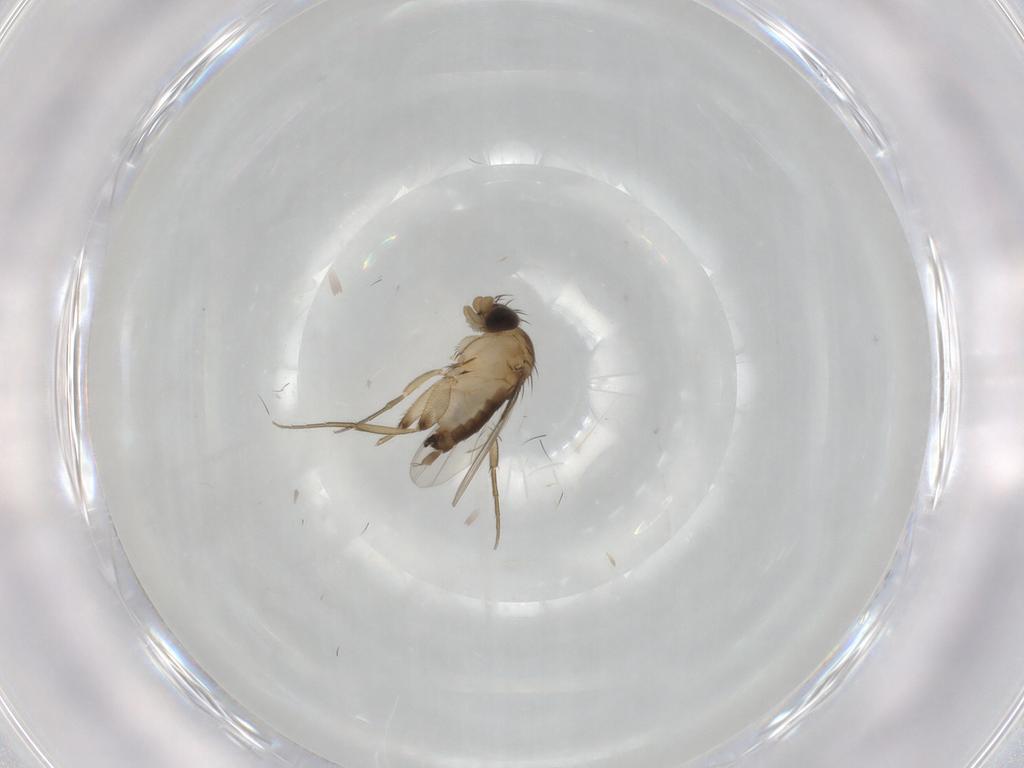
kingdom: Animalia
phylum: Arthropoda
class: Insecta
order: Diptera
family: Phoridae
